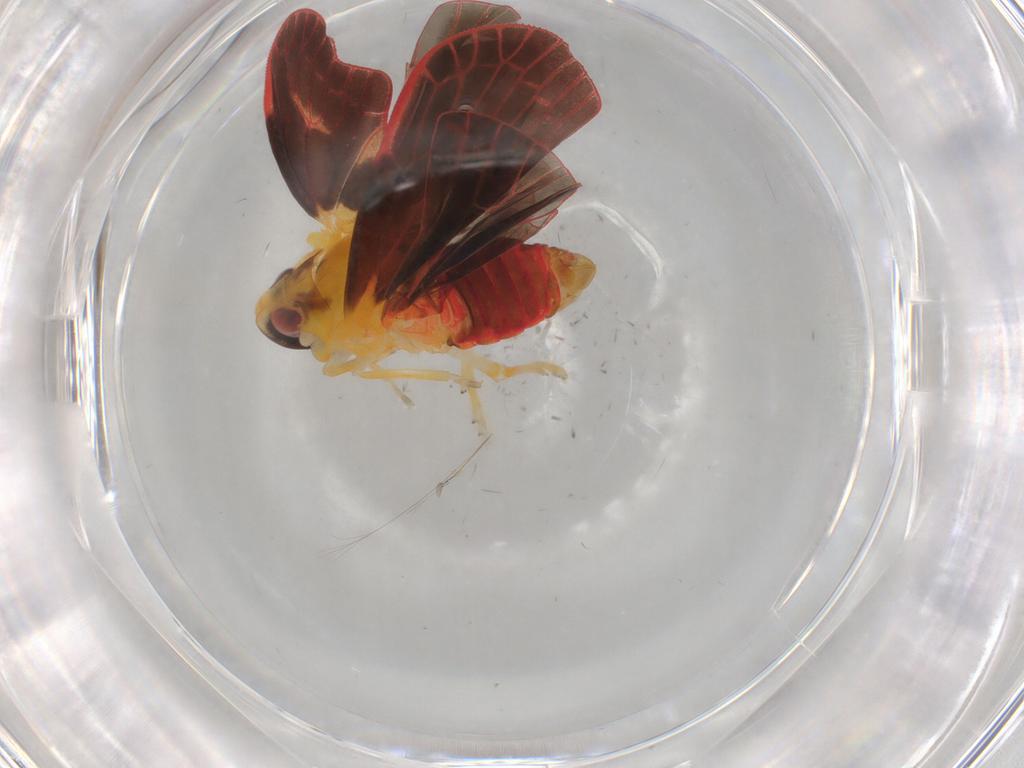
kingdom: Animalia
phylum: Arthropoda
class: Insecta
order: Hemiptera
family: Derbidae
